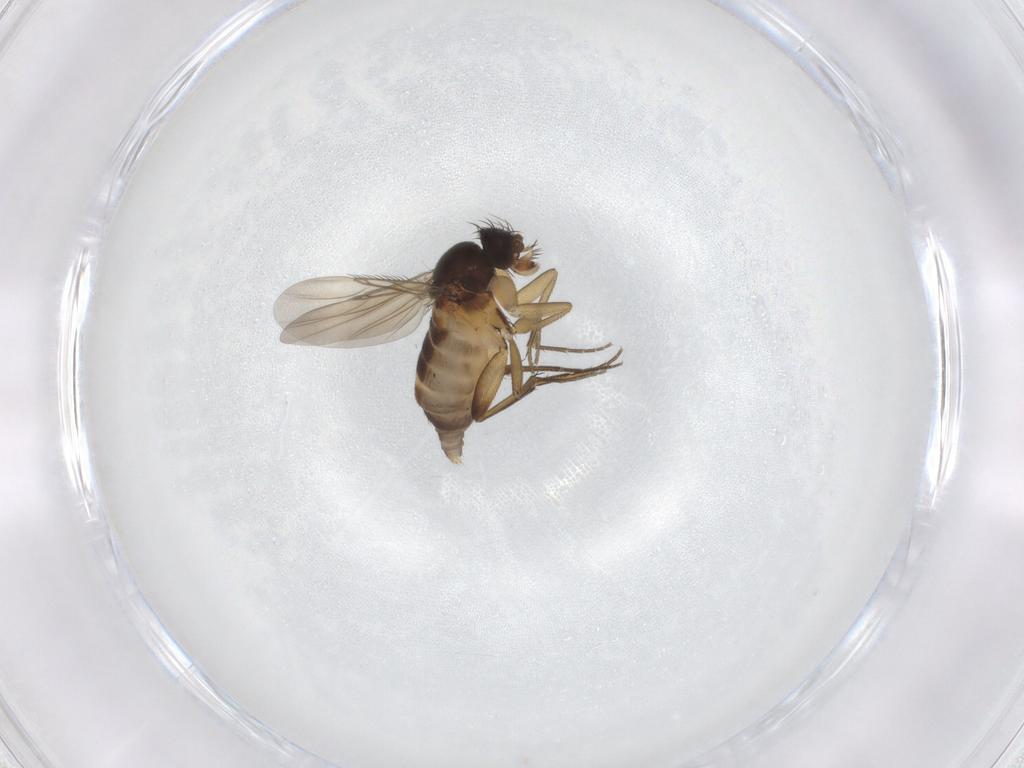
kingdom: Animalia
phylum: Arthropoda
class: Insecta
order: Diptera
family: Phoridae
